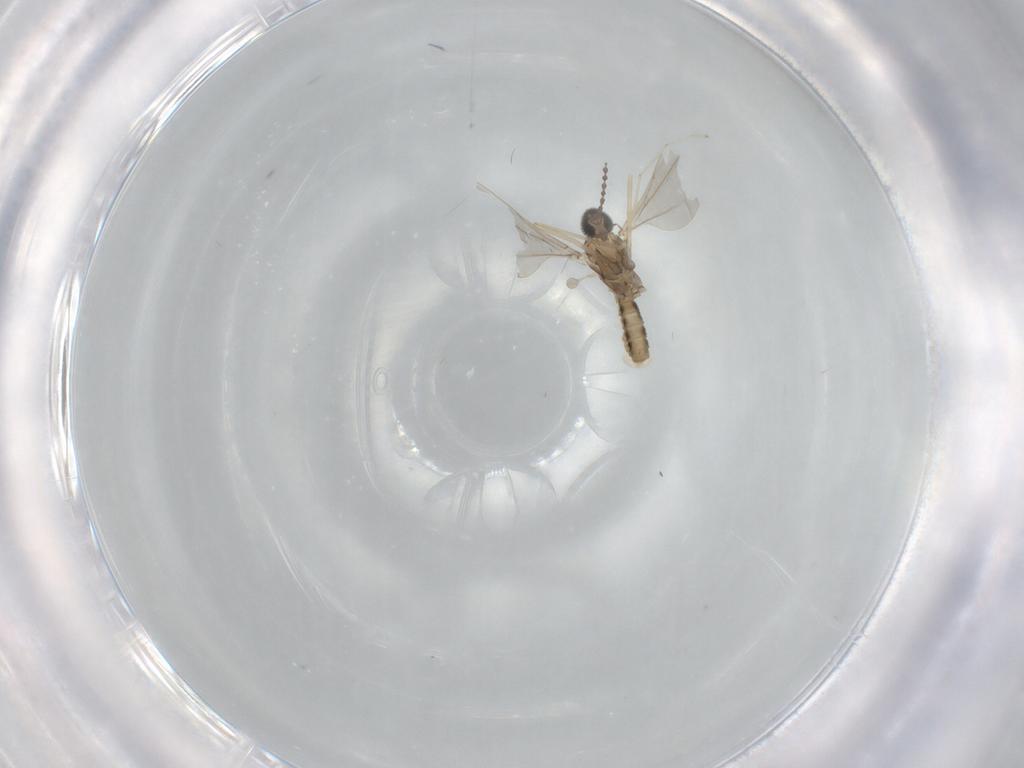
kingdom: Animalia
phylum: Arthropoda
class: Insecta
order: Diptera
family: Cecidomyiidae
